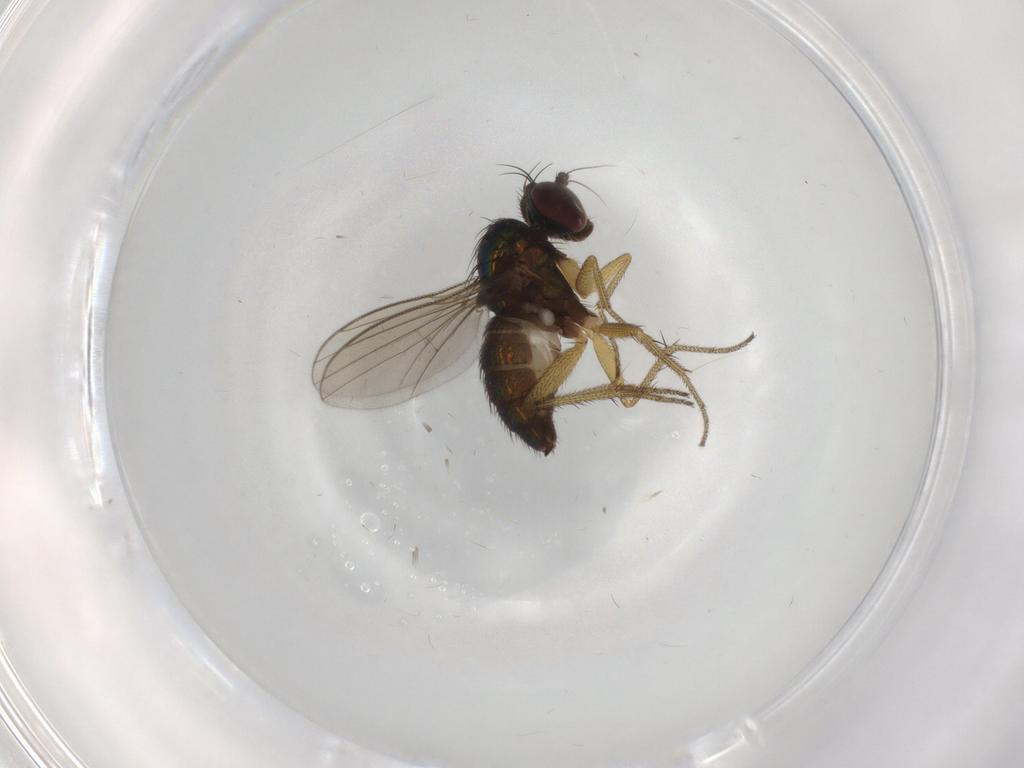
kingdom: Animalia
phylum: Arthropoda
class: Insecta
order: Diptera
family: Dolichopodidae
